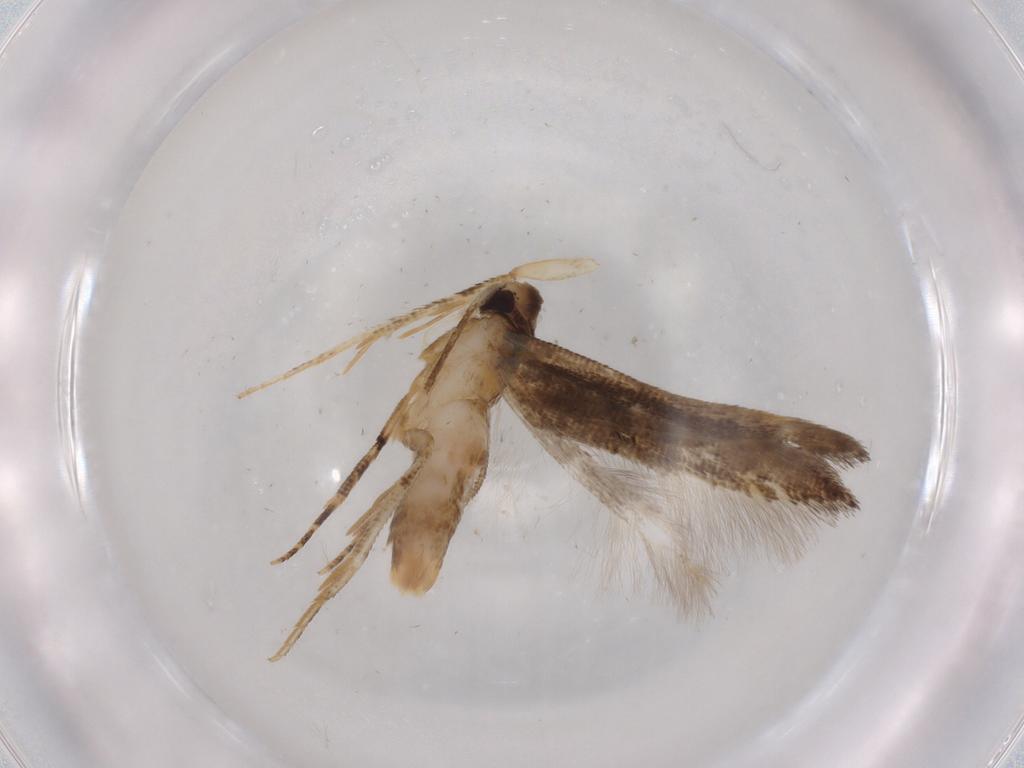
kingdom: Animalia
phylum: Arthropoda
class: Insecta
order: Lepidoptera
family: Cosmopterigidae
